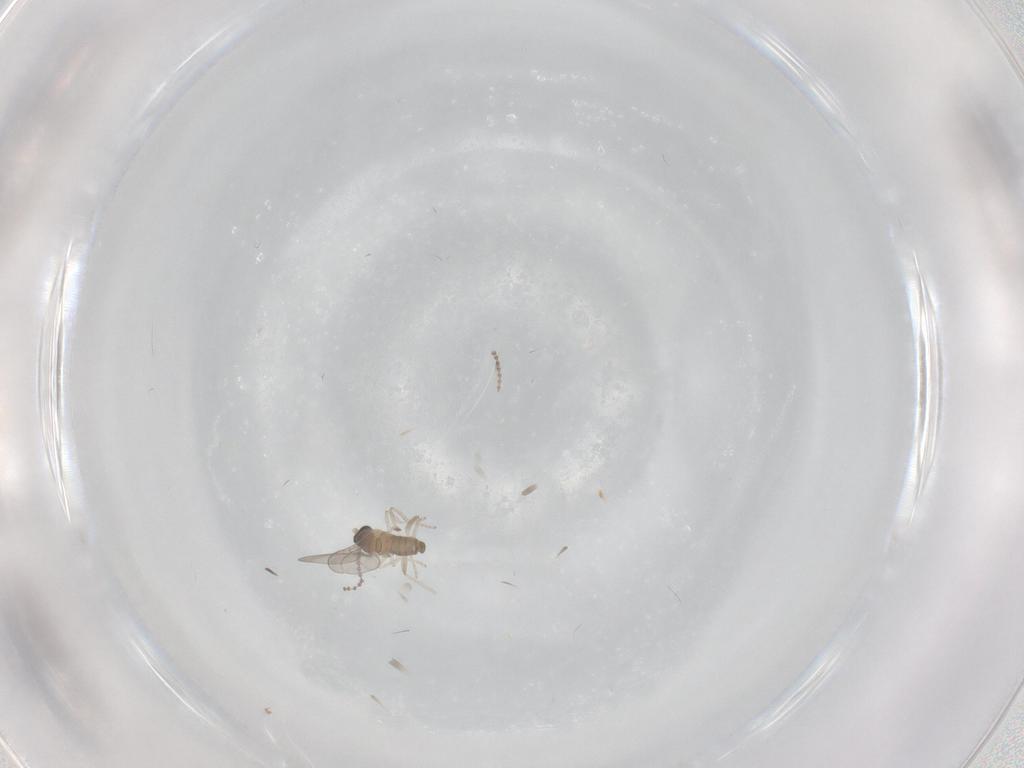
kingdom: Animalia
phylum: Arthropoda
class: Insecta
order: Diptera
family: Cecidomyiidae
